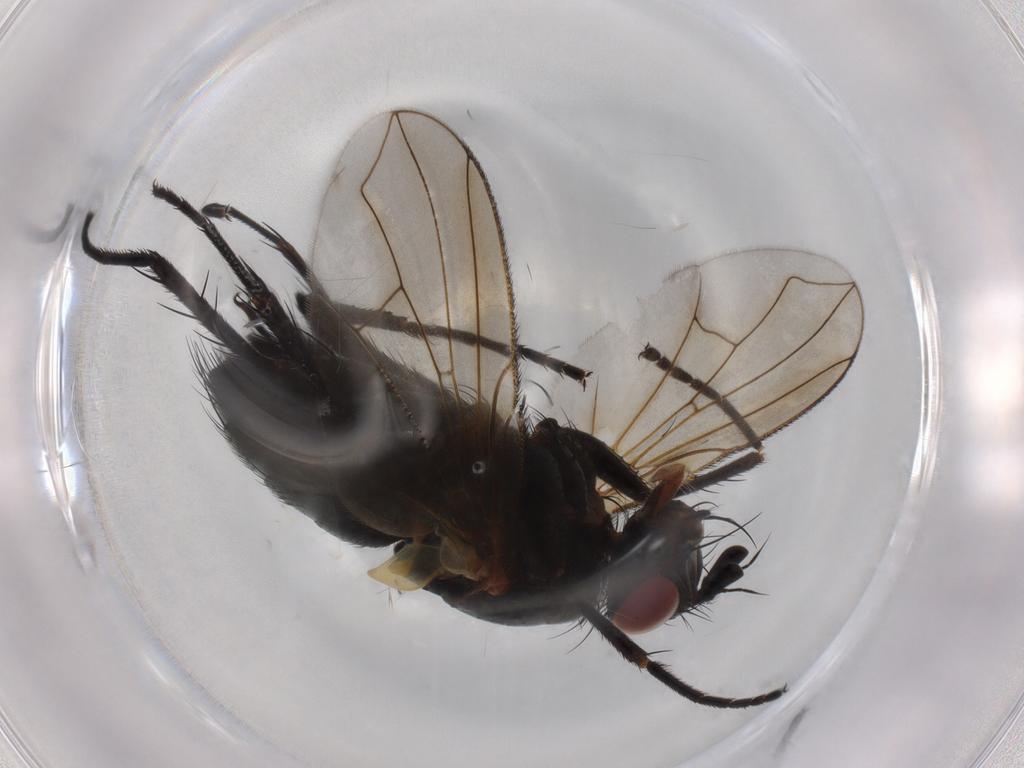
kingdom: Animalia
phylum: Arthropoda
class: Insecta
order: Diptera
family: Tachinidae
